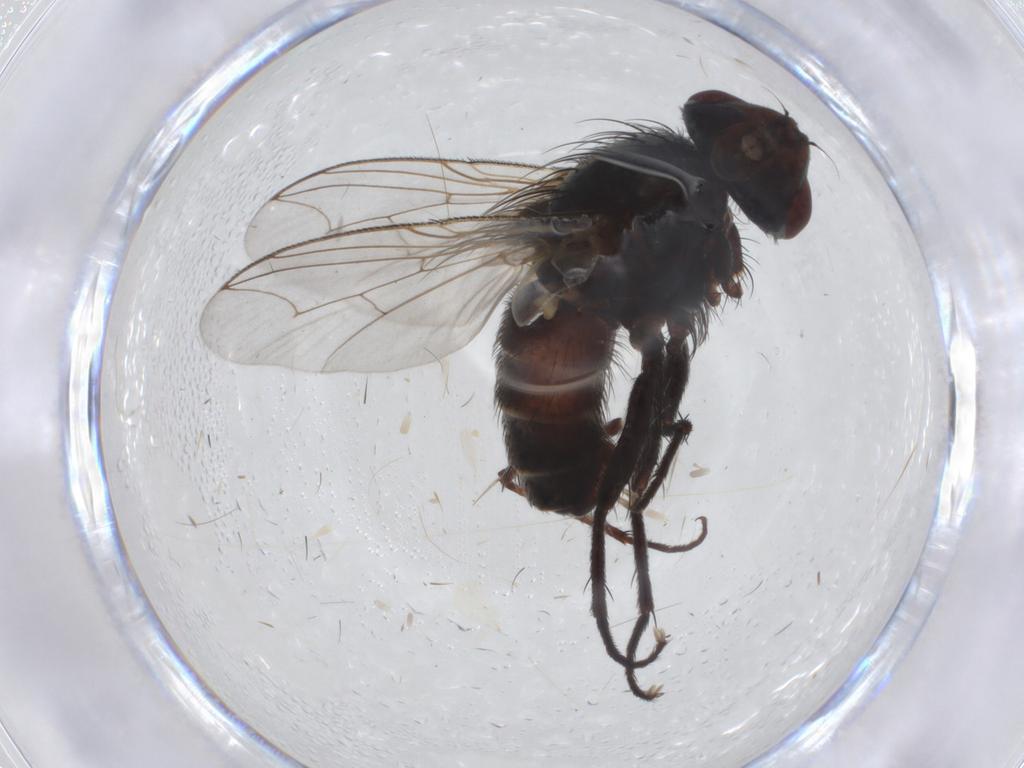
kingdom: Animalia
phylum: Arthropoda
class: Insecta
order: Diptera
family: Sarcophagidae
